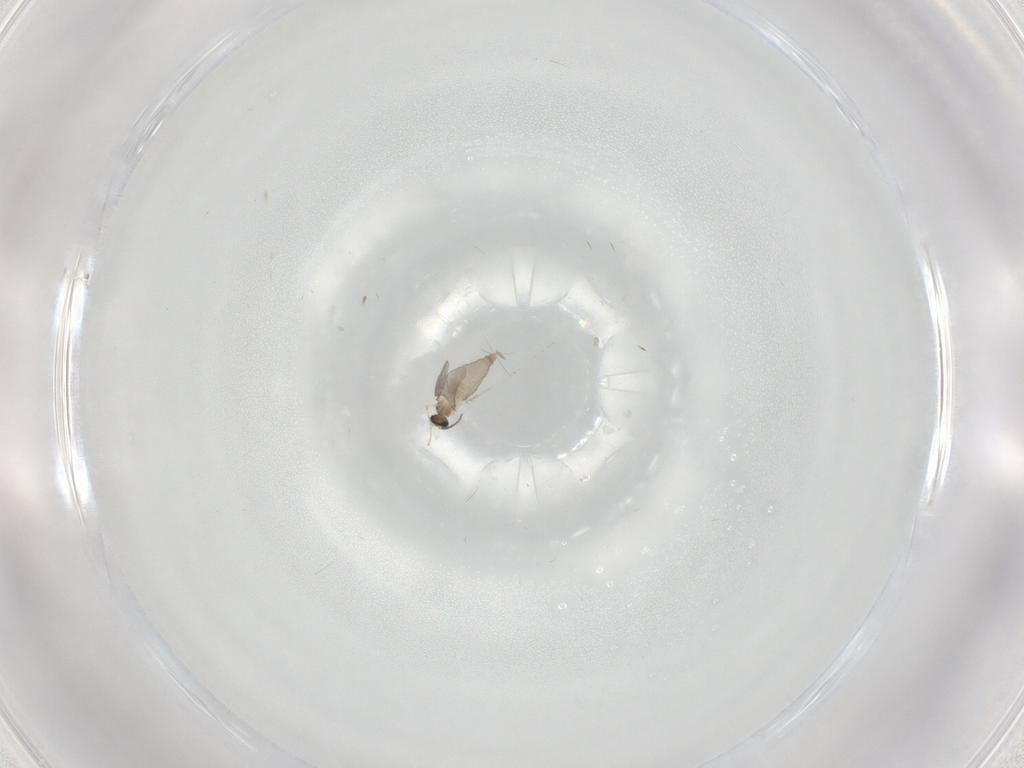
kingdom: Animalia
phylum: Arthropoda
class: Insecta
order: Diptera
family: Cecidomyiidae
